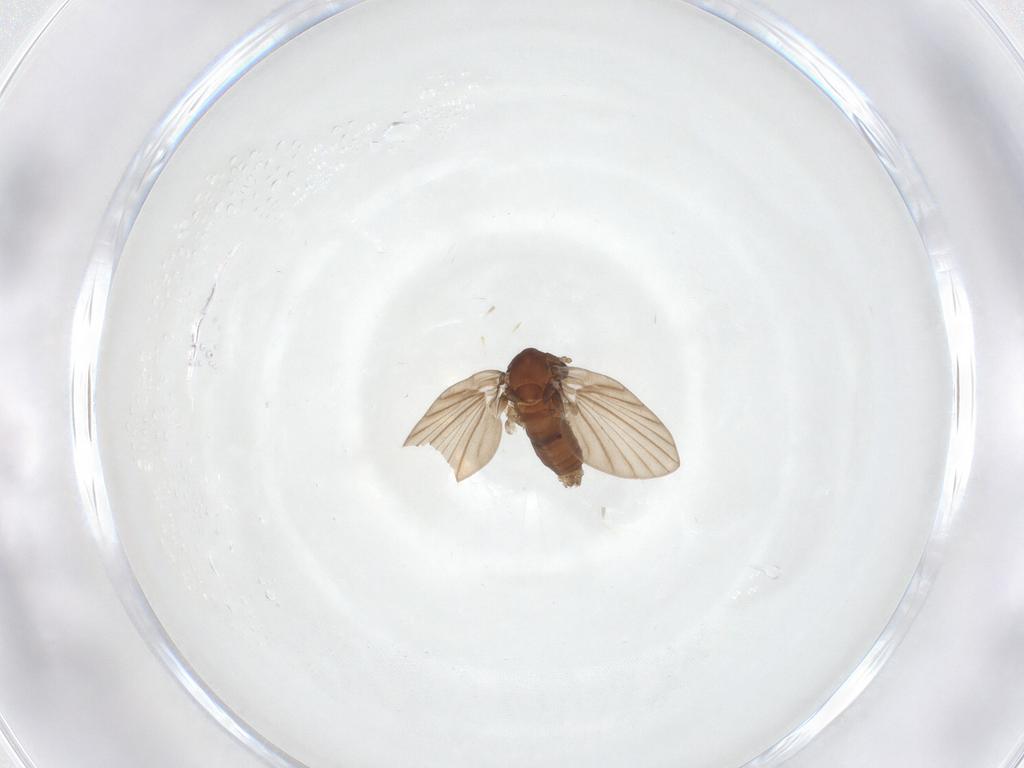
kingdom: Animalia
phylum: Arthropoda
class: Insecta
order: Diptera
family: Psychodidae
